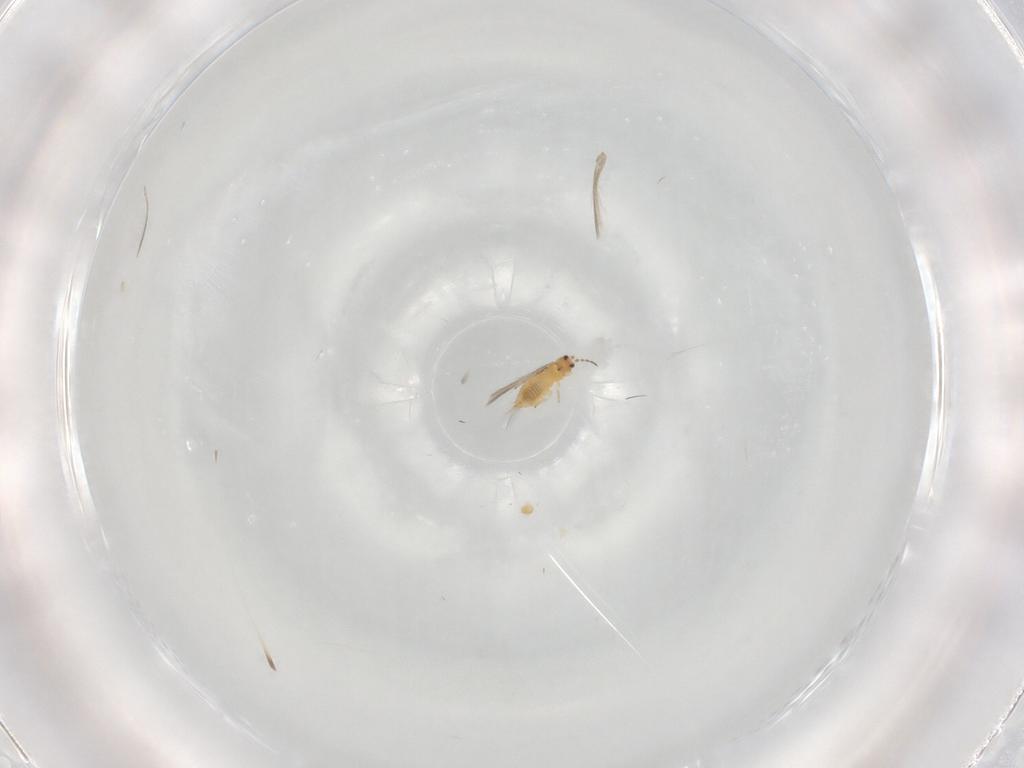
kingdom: Animalia
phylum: Arthropoda
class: Insecta
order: Thysanoptera
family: Thripidae
